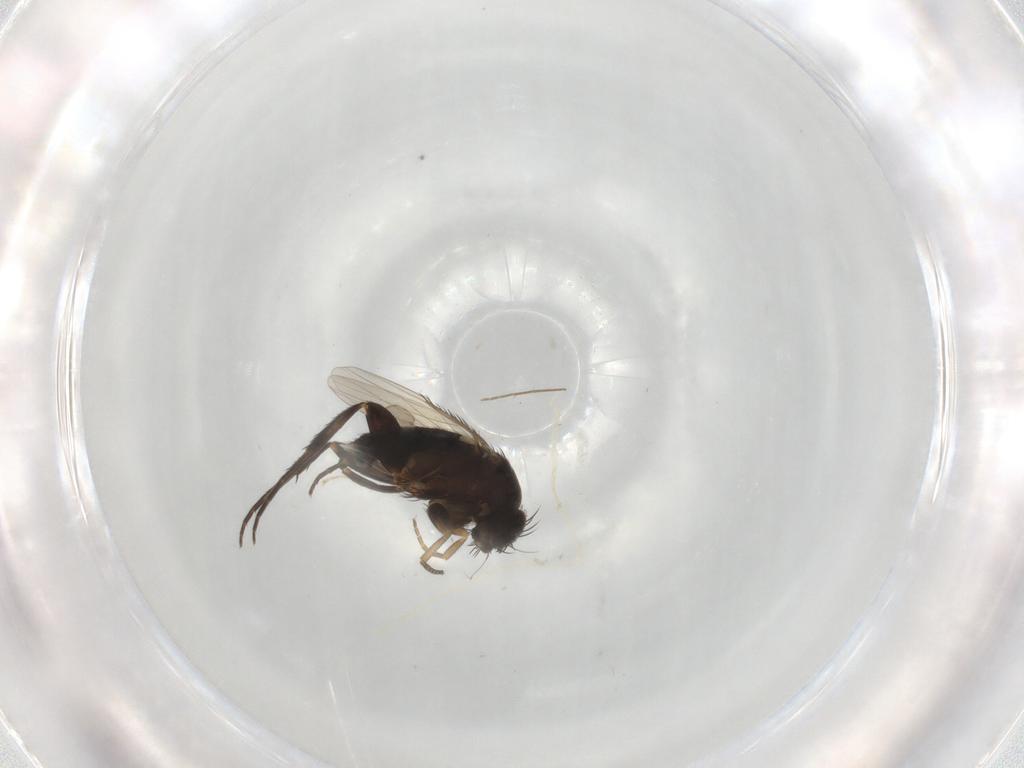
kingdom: Animalia
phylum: Arthropoda
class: Insecta
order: Diptera
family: Phoridae
